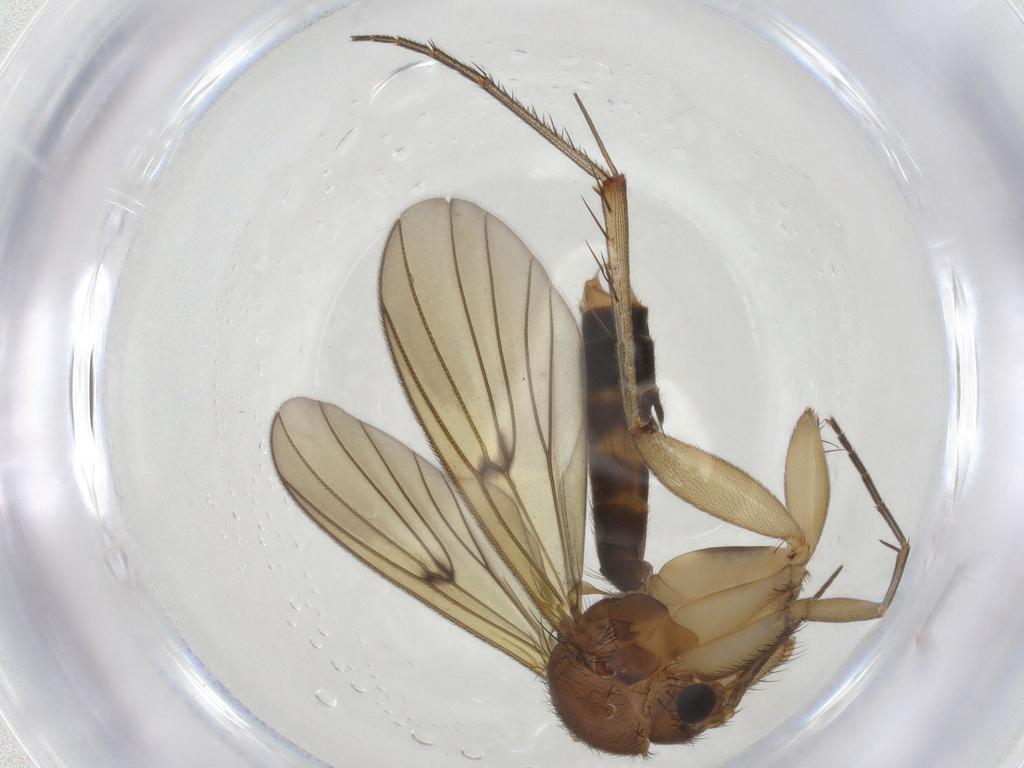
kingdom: Animalia
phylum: Arthropoda
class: Insecta
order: Diptera
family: Mycetophilidae
